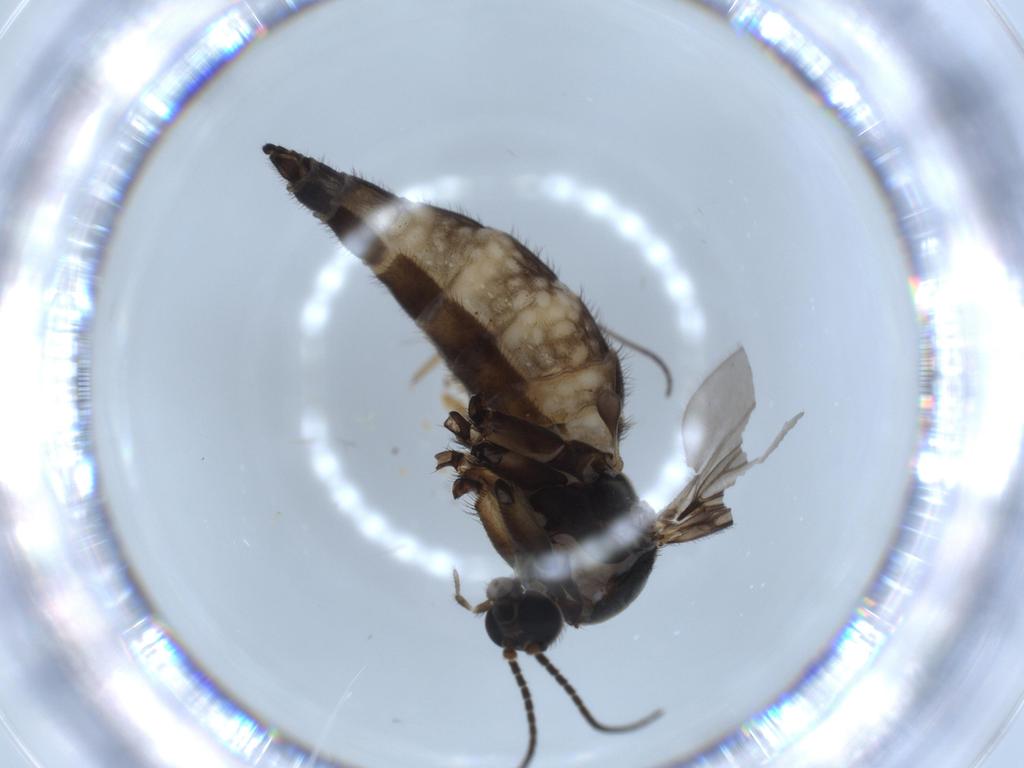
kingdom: Animalia
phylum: Arthropoda
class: Insecta
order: Diptera
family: Sciaridae
